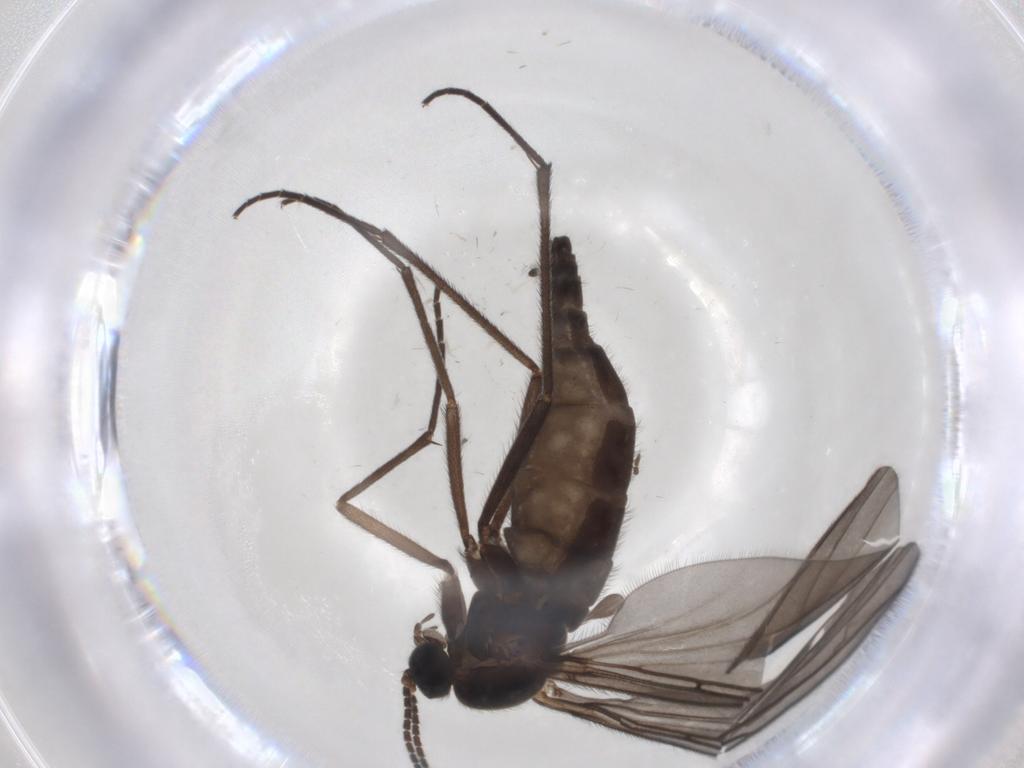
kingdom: Animalia
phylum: Arthropoda
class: Insecta
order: Diptera
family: Sciaridae
